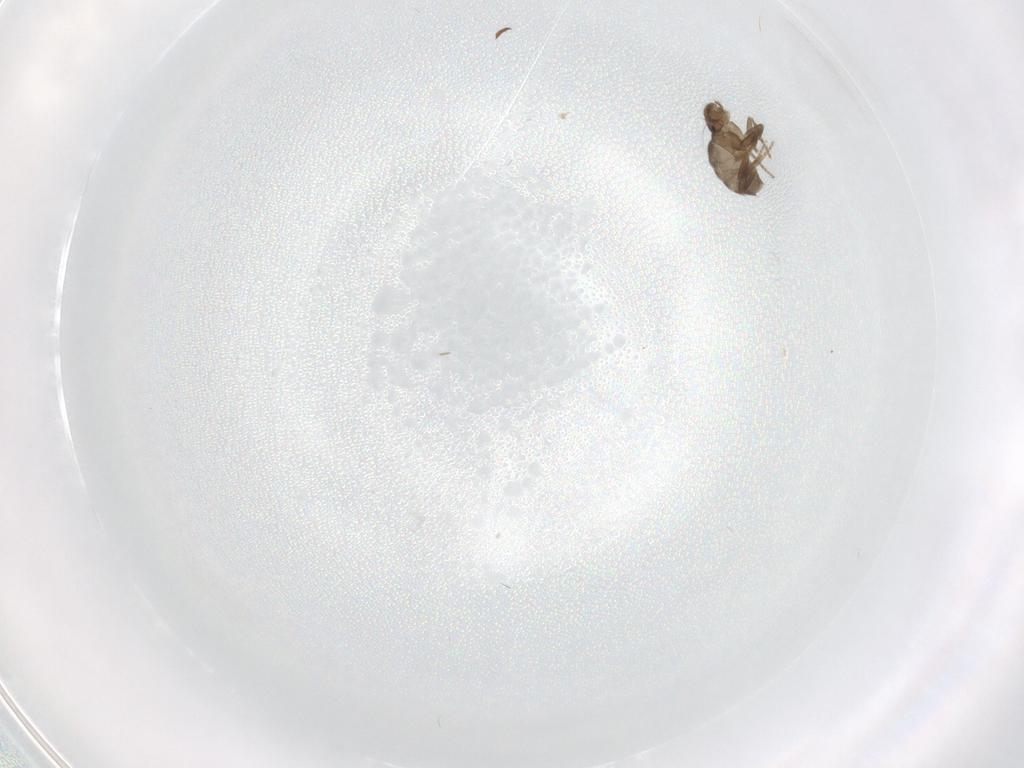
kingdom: Animalia
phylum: Arthropoda
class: Insecta
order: Diptera
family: Phoridae
